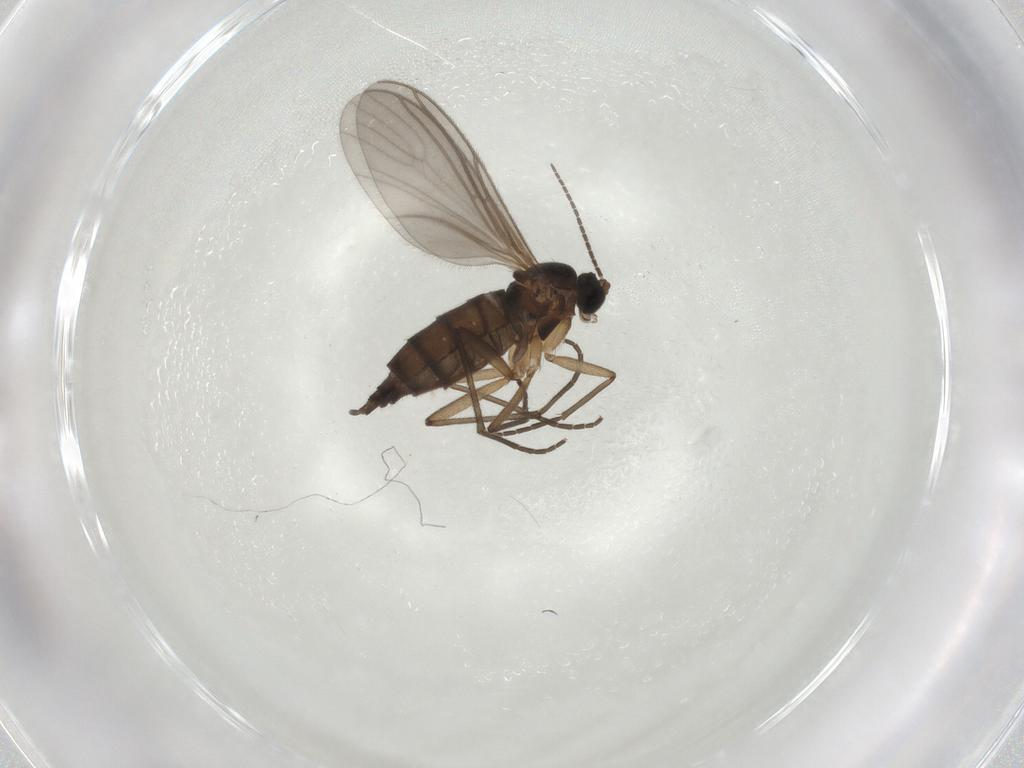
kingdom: Animalia
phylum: Arthropoda
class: Insecta
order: Diptera
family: Sciaridae
